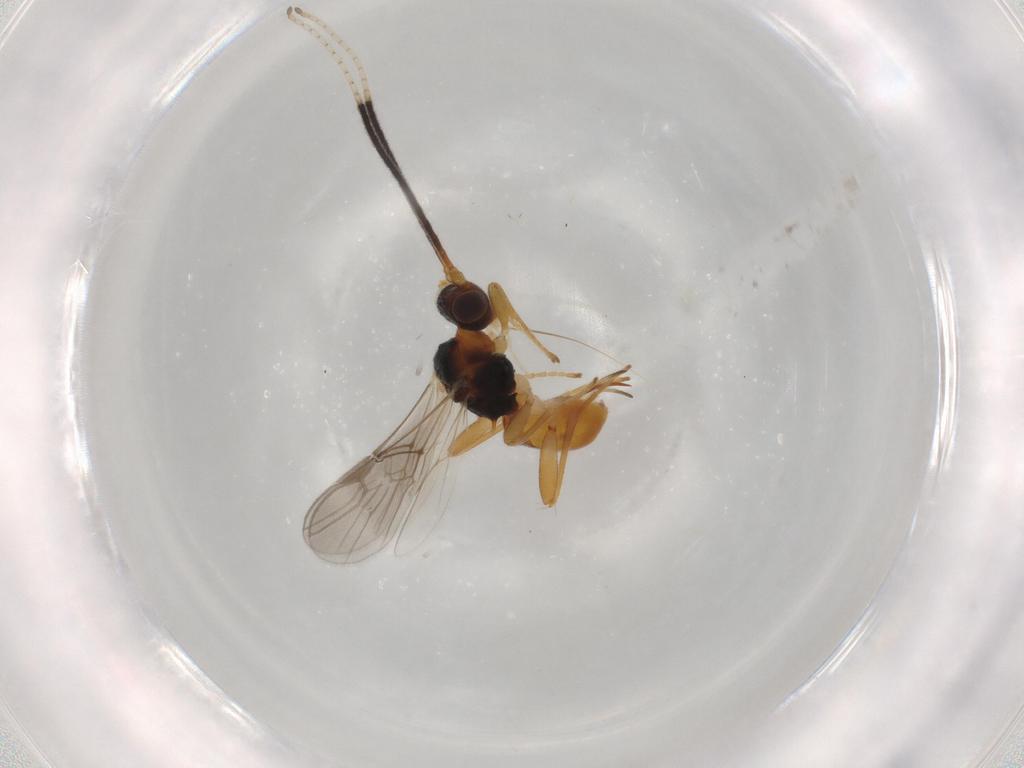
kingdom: Animalia
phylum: Arthropoda
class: Insecta
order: Hymenoptera
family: Braconidae
